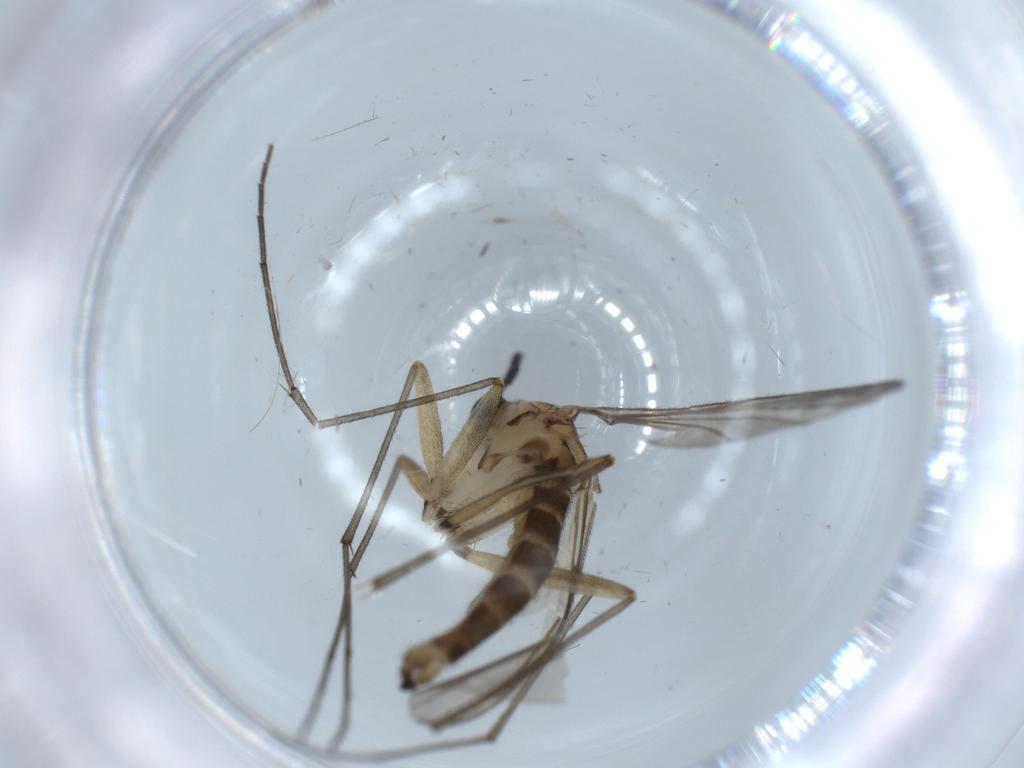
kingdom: Animalia
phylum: Arthropoda
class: Insecta
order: Diptera
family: Sciaridae
